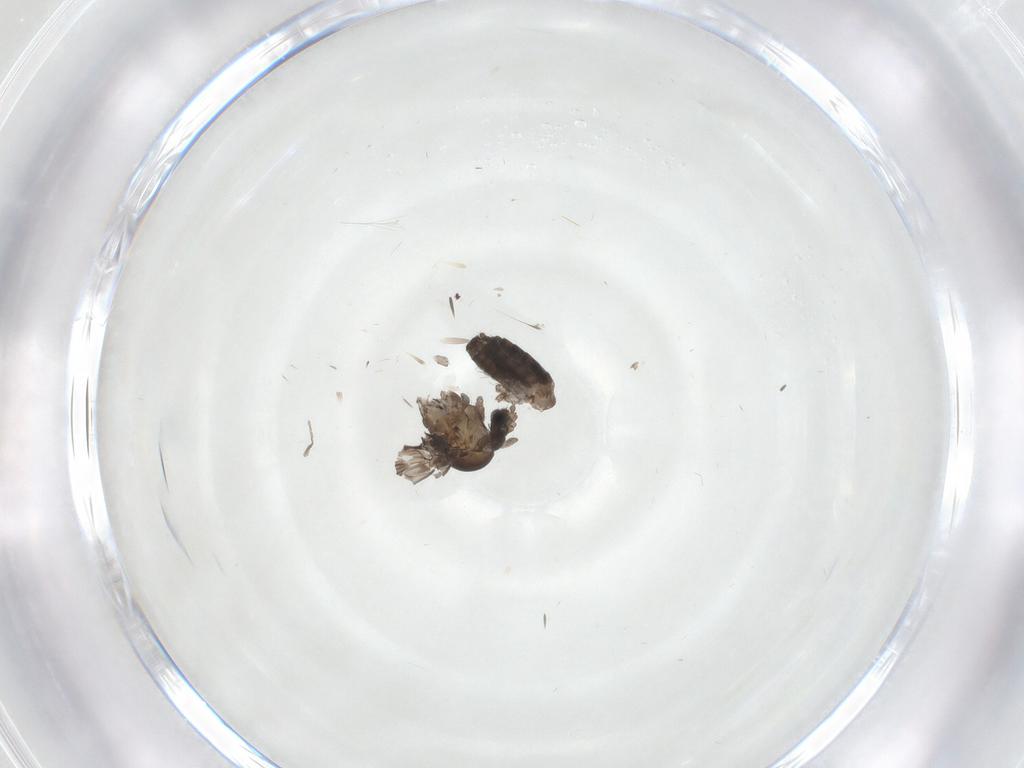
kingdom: Animalia
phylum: Arthropoda
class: Insecta
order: Diptera
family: Psychodidae
